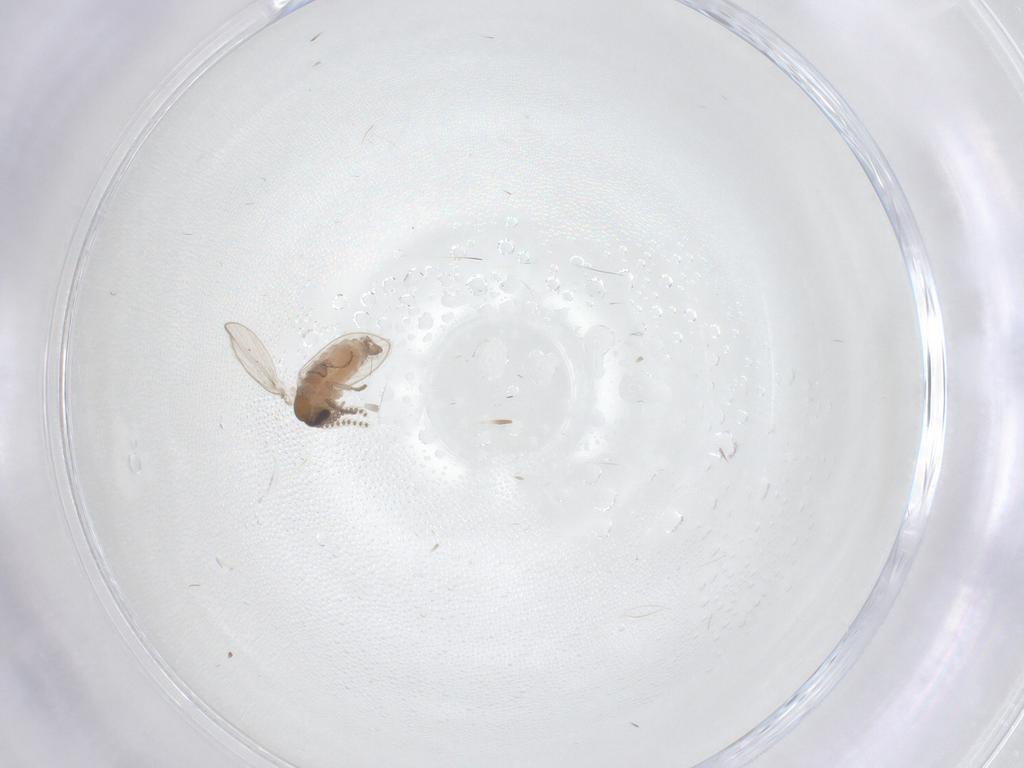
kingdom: Animalia
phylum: Arthropoda
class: Insecta
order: Diptera
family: Psychodidae
